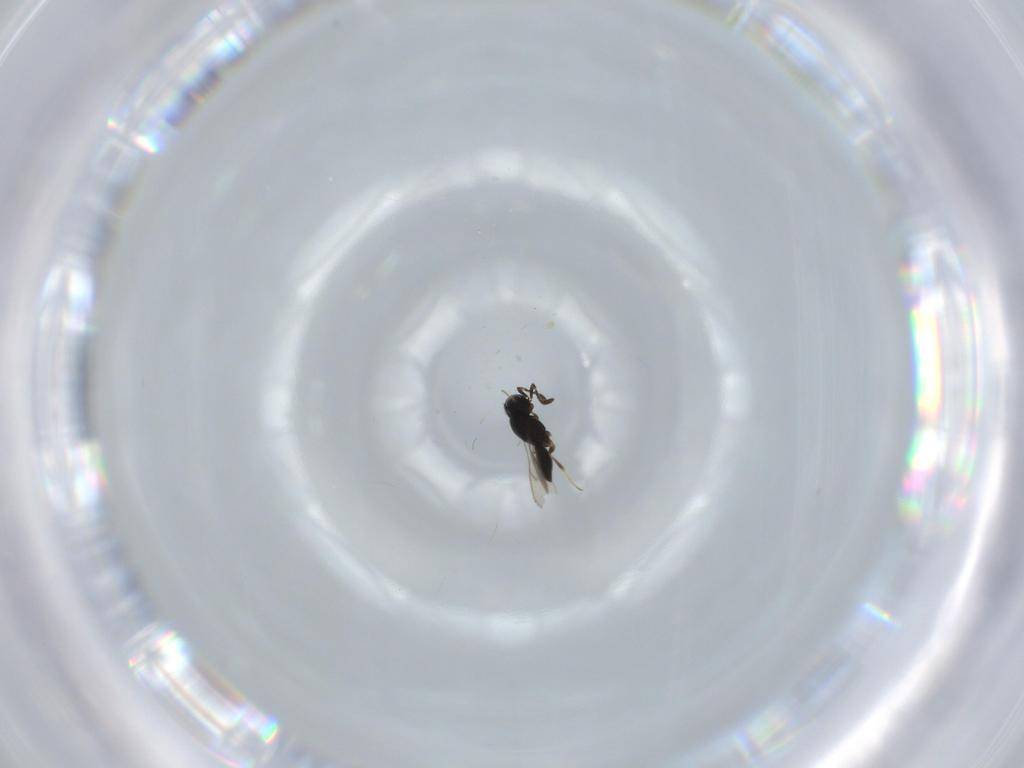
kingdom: Animalia
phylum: Arthropoda
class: Insecta
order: Hymenoptera
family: Scelionidae
